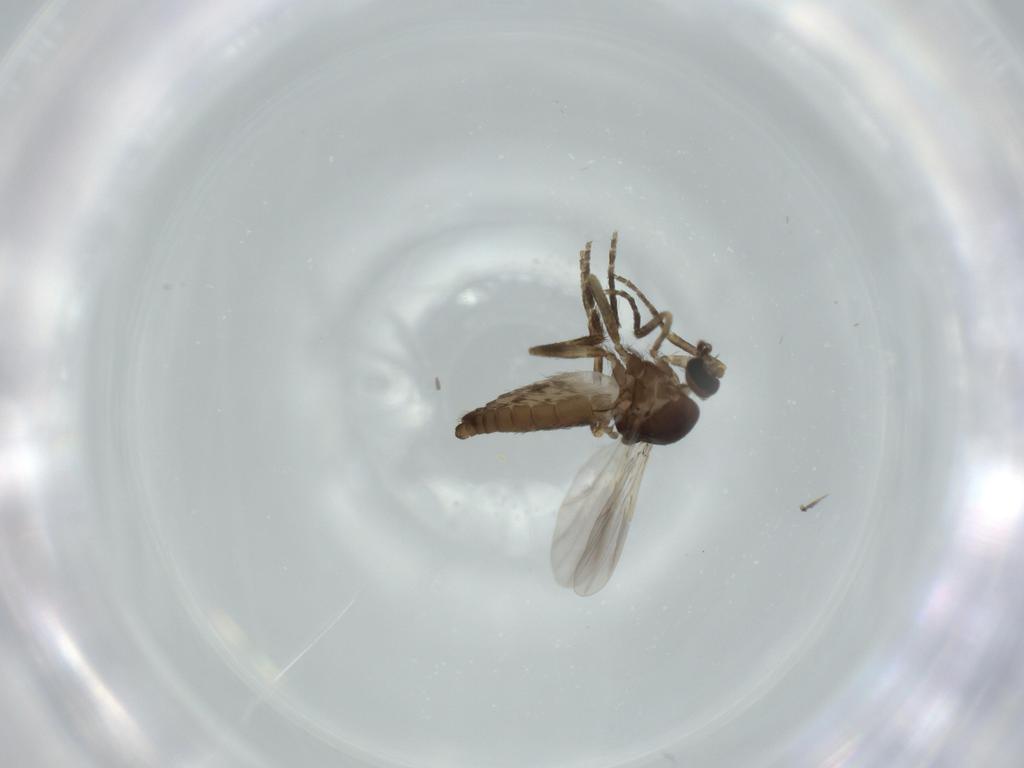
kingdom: Animalia
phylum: Arthropoda
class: Insecta
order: Diptera
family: Ceratopogonidae
